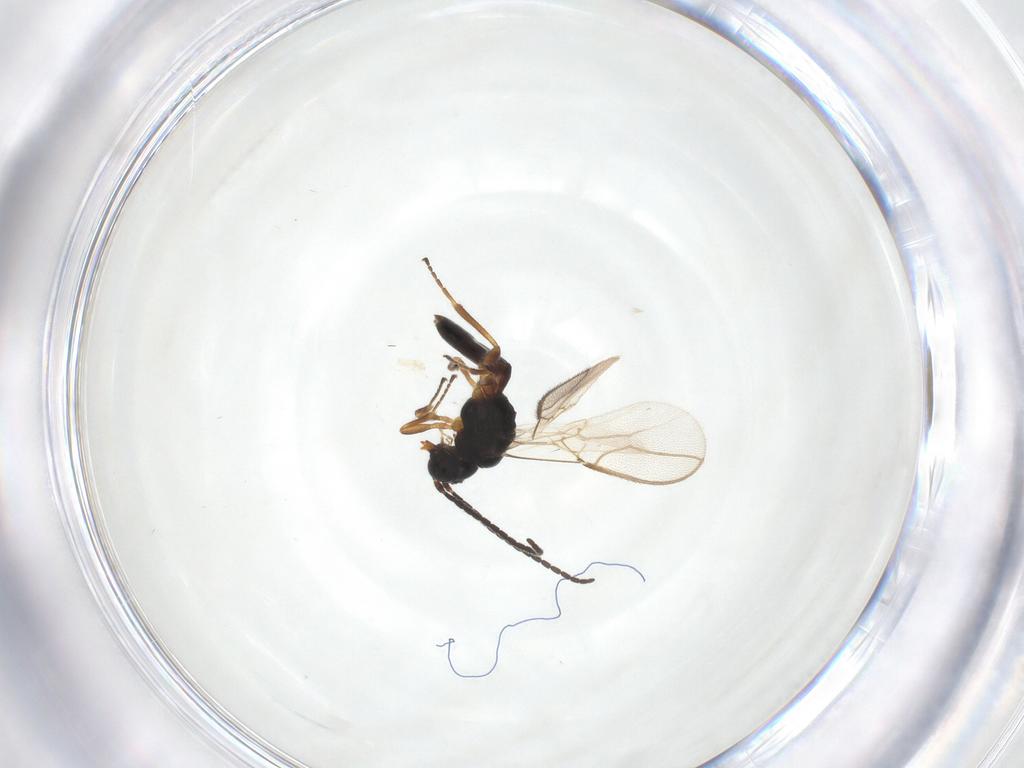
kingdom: Animalia
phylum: Arthropoda
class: Insecta
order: Hymenoptera
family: Braconidae
